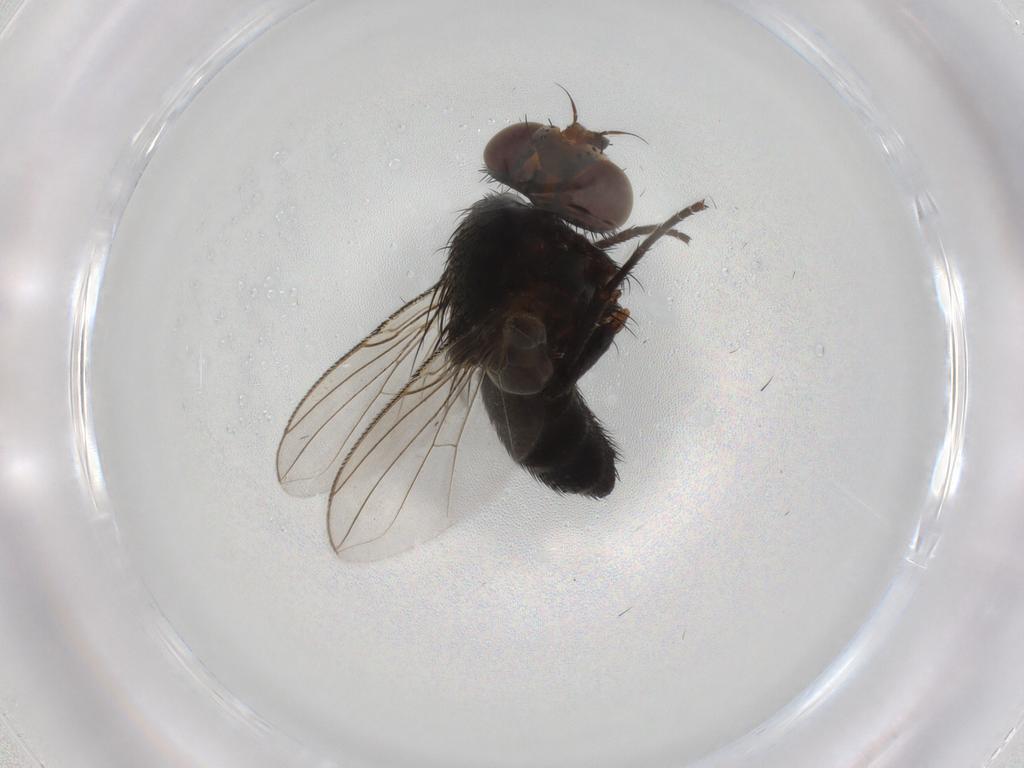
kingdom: Animalia
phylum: Arthropoda
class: Insecta
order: Diptera
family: Tachinidae
